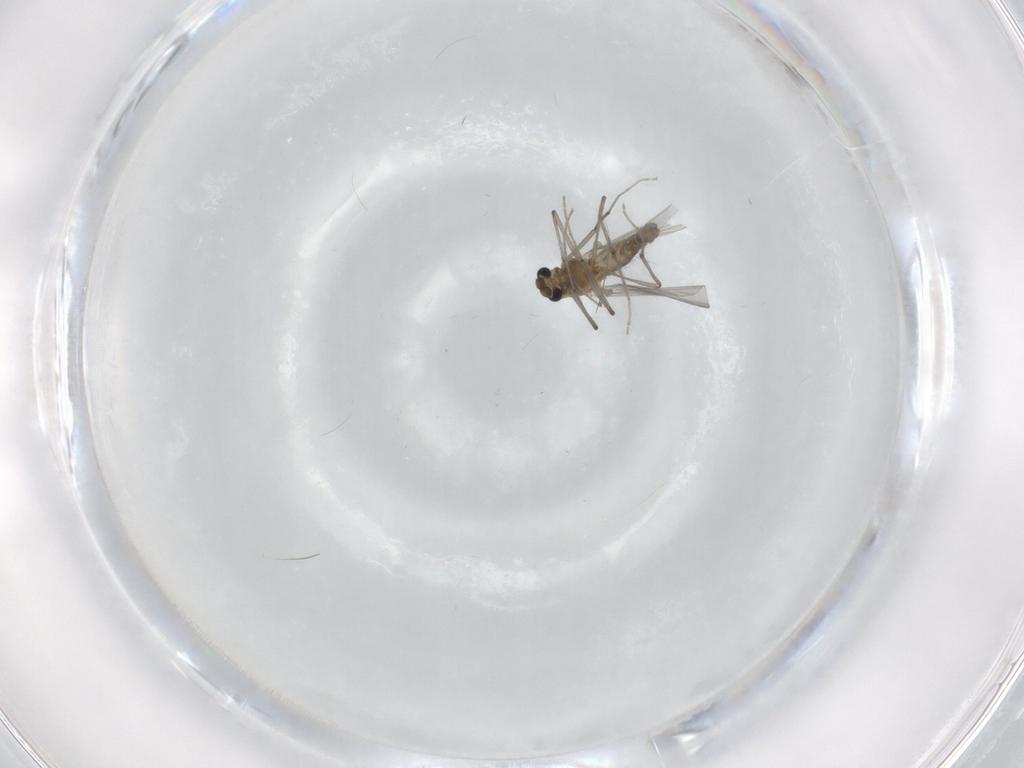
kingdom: Animalia
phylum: Arthropoda
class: Insecta
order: Diptera
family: Chironomidae
